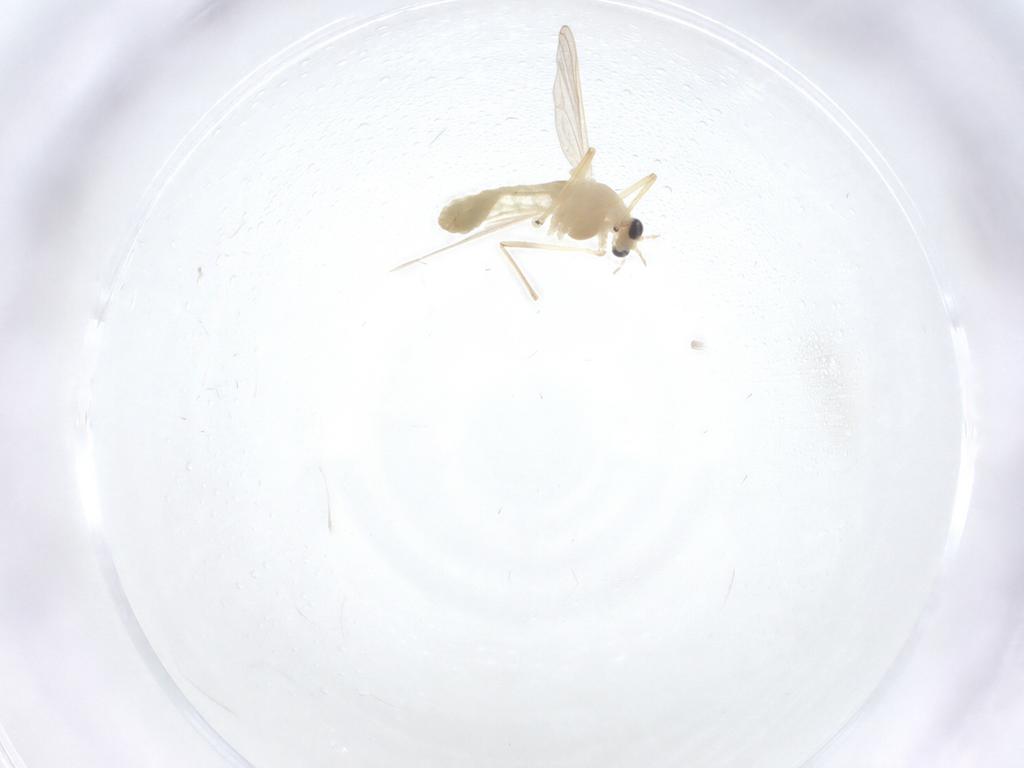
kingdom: Animalia
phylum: Arthropoda
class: Insecta
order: Diptera
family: Chironomidae
